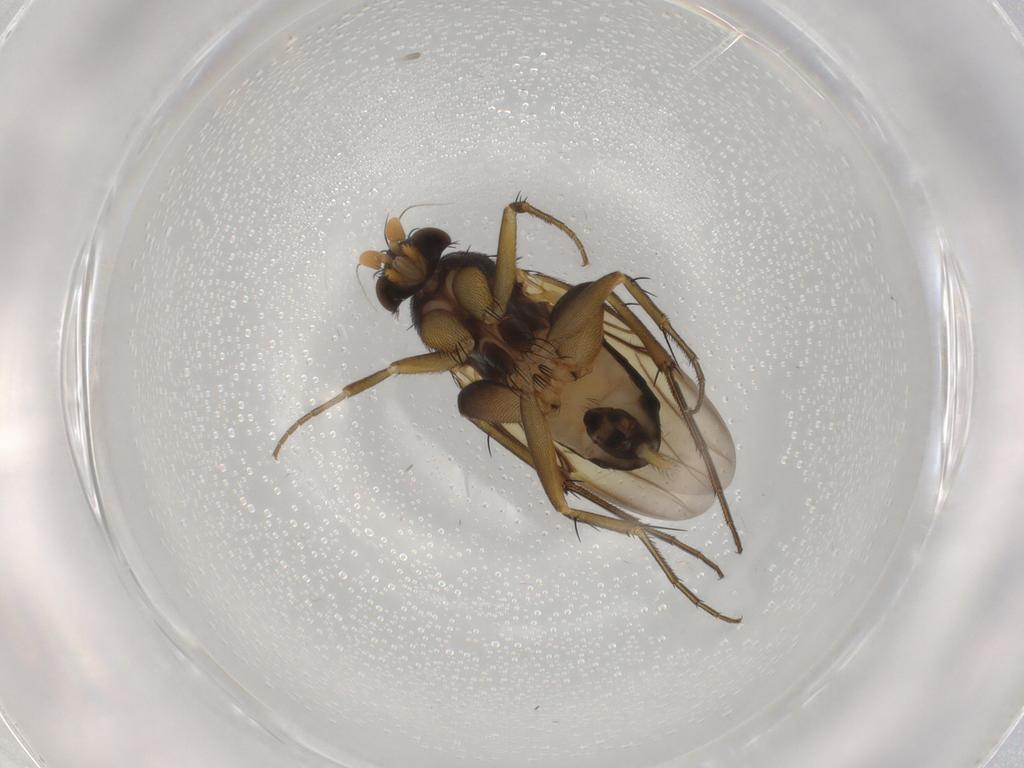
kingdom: Animalia
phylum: Arthropoda
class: Insecta
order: Diptera
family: Phoridae
